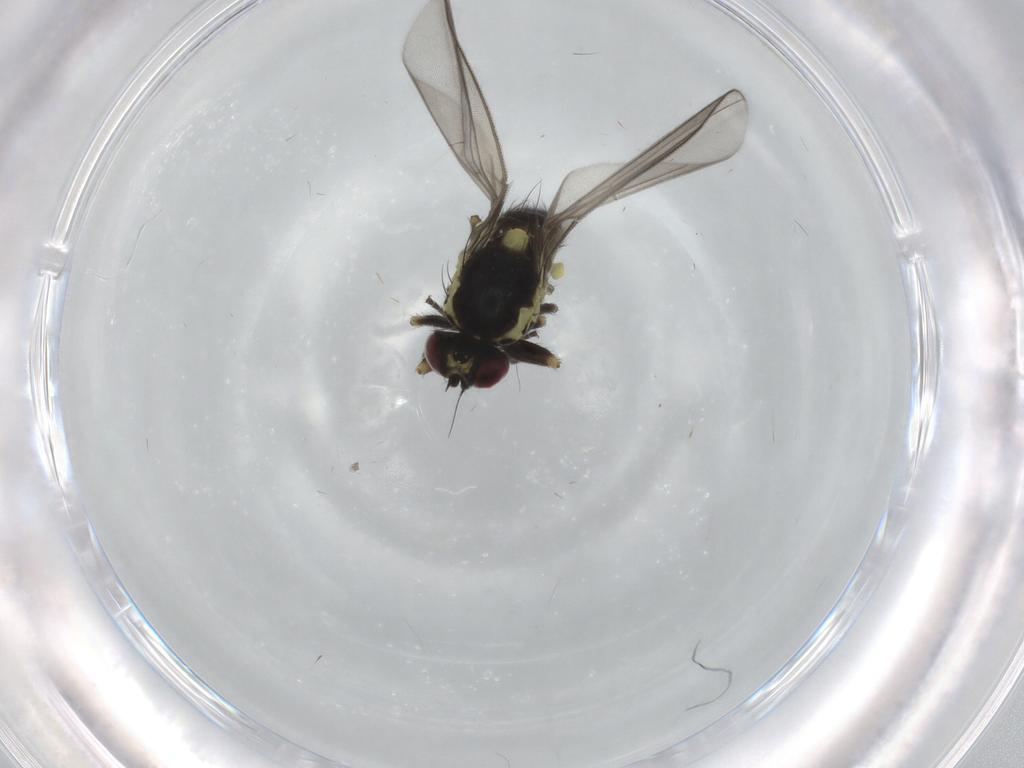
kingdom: Animalia
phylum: Arthropoda
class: Insecta
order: Diptera
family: Agromyzidae
